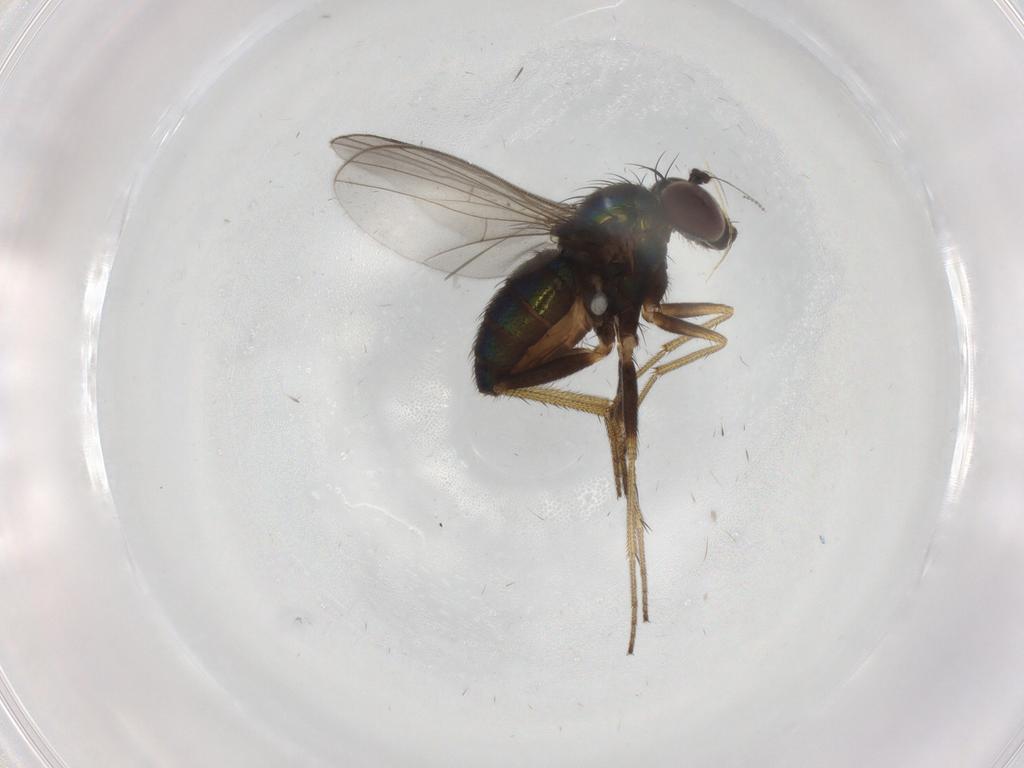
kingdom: Animalia
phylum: Arthropoda
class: Insecta
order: Diptera
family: Dolichopodidae
